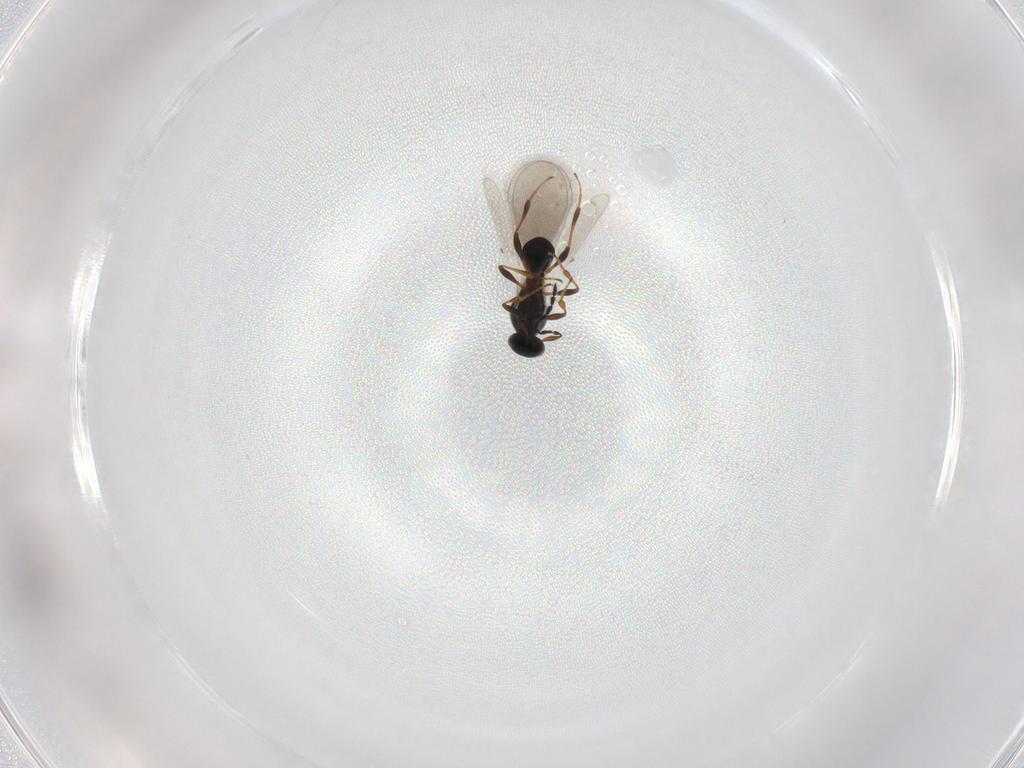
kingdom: Animalia
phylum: Arthropoda
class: Insecta
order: Hymenoptera
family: Platygastridae
